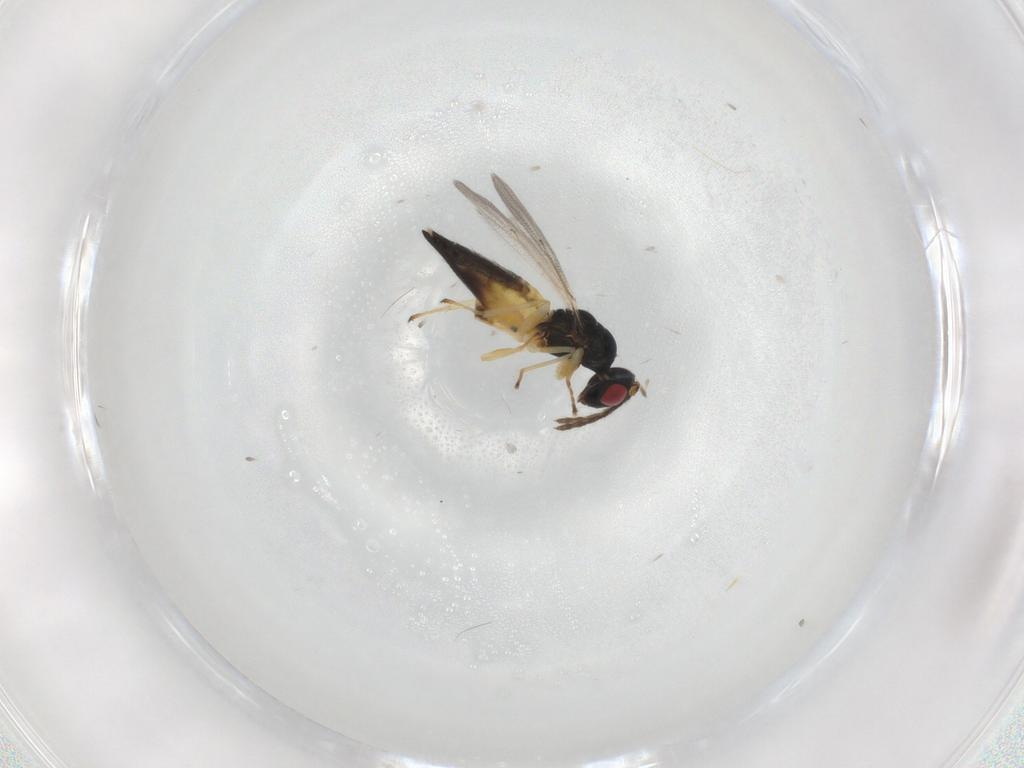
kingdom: Animalia
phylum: Arthropoda
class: Insecta
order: Hymenoptera
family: Eulophidae
